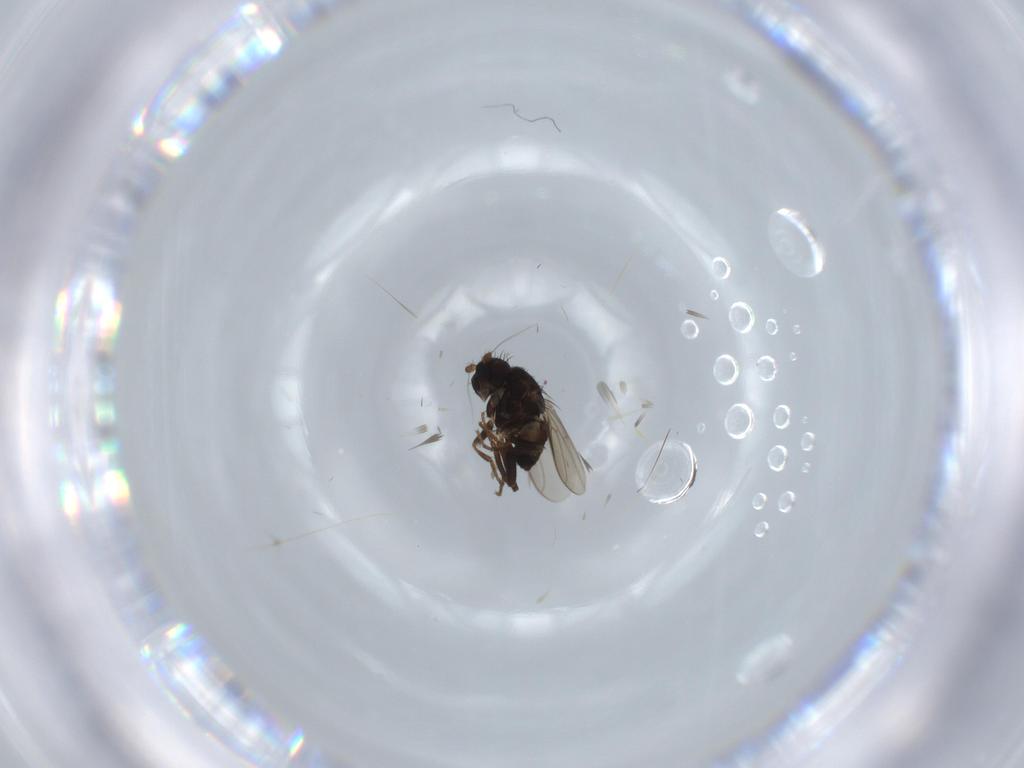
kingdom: Animalia
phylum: Arthropoda
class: Insecta
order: Diptera
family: Sphaeroceridae
